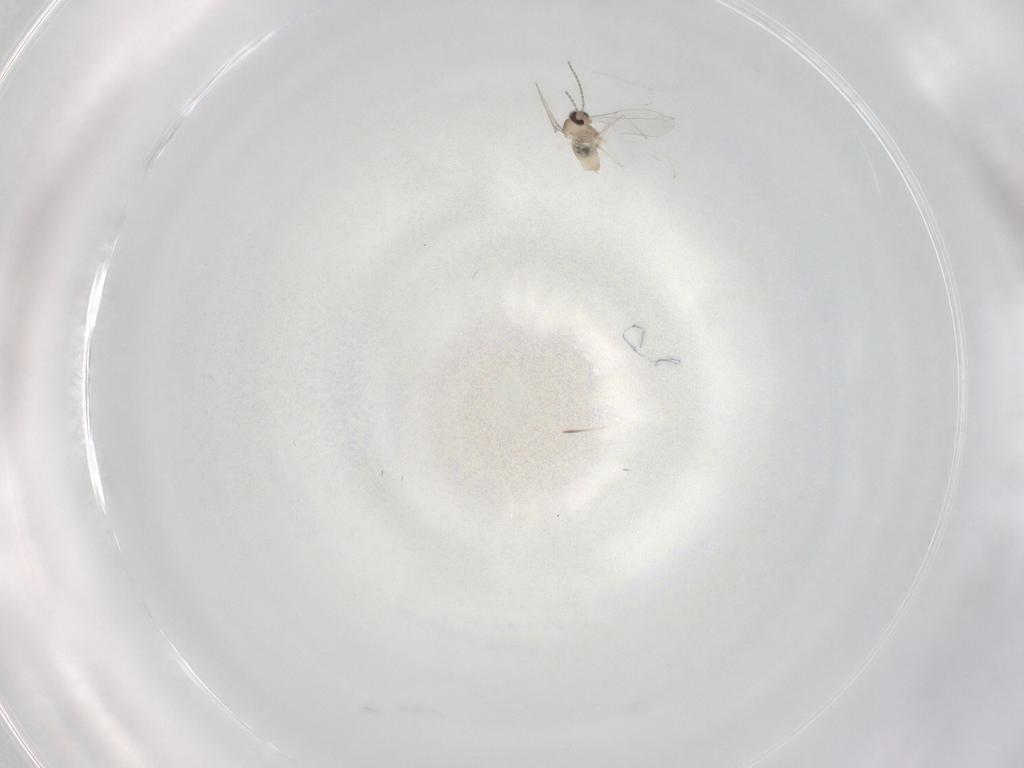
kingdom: Animalia
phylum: Arthropoda
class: Insecta
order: Diptera
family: Cecidomyiidae
